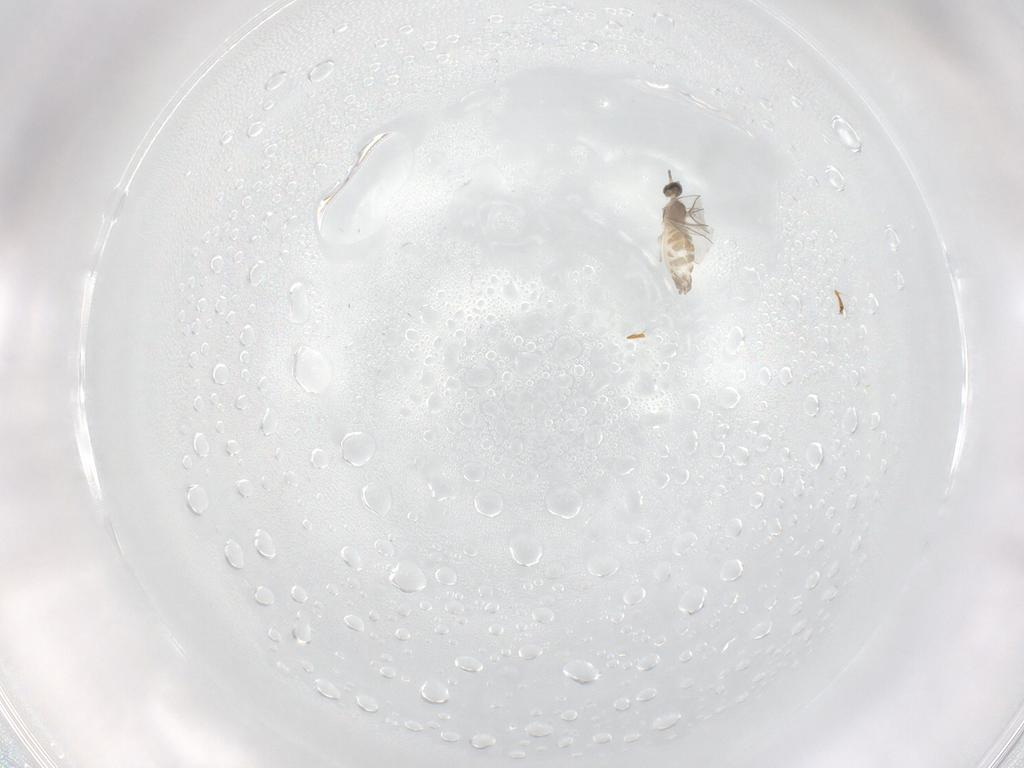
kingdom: Animalia
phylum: Arthropoda
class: Insecta
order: Diptera
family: Cecidomyiidae
